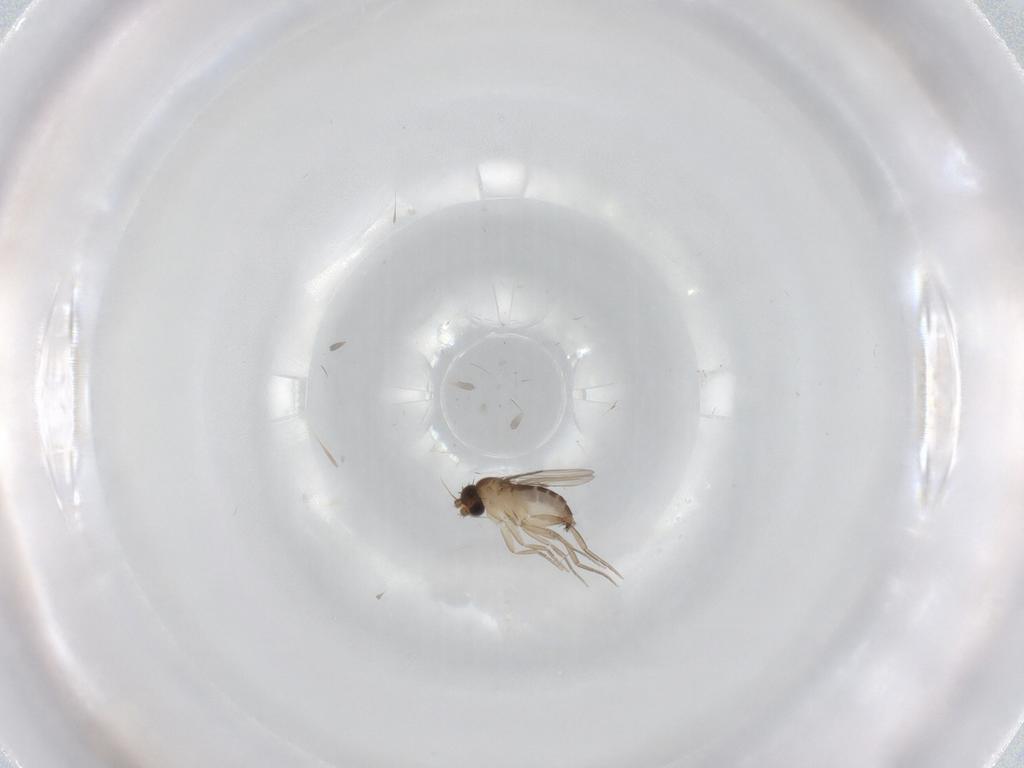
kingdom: Animalia
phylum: Arthropoda
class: Insecta
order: Diptera
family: Phoridae
